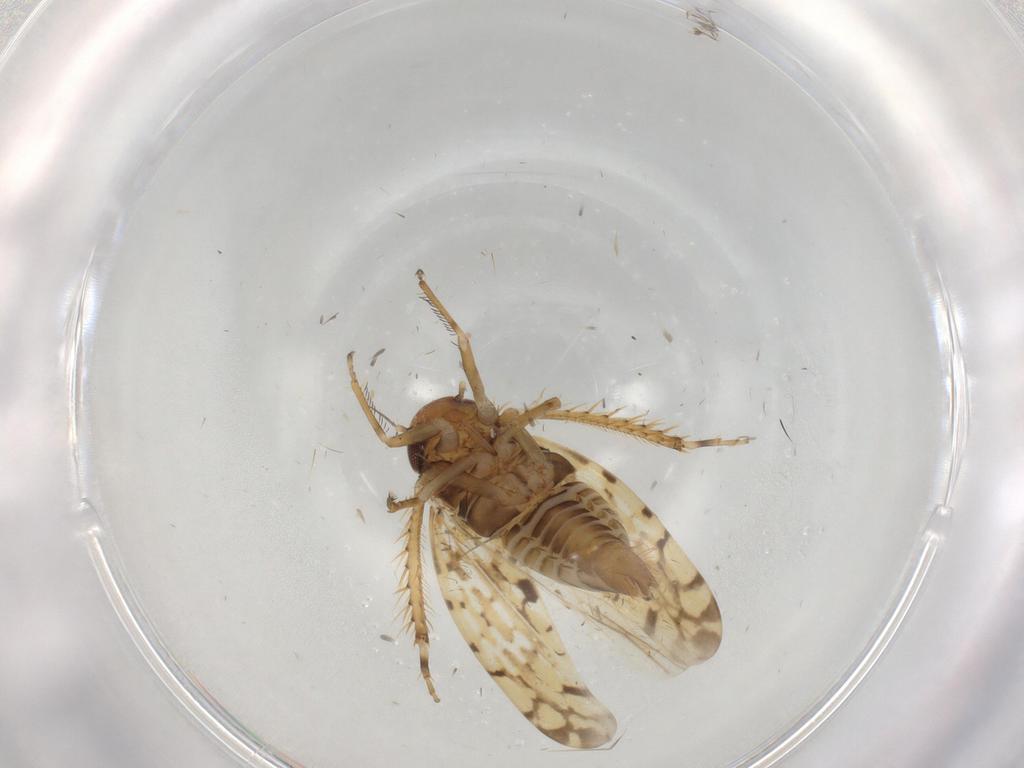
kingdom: Animalia
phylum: Arthropoda
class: Insecta
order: Hemiptera
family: Cicadellidae
